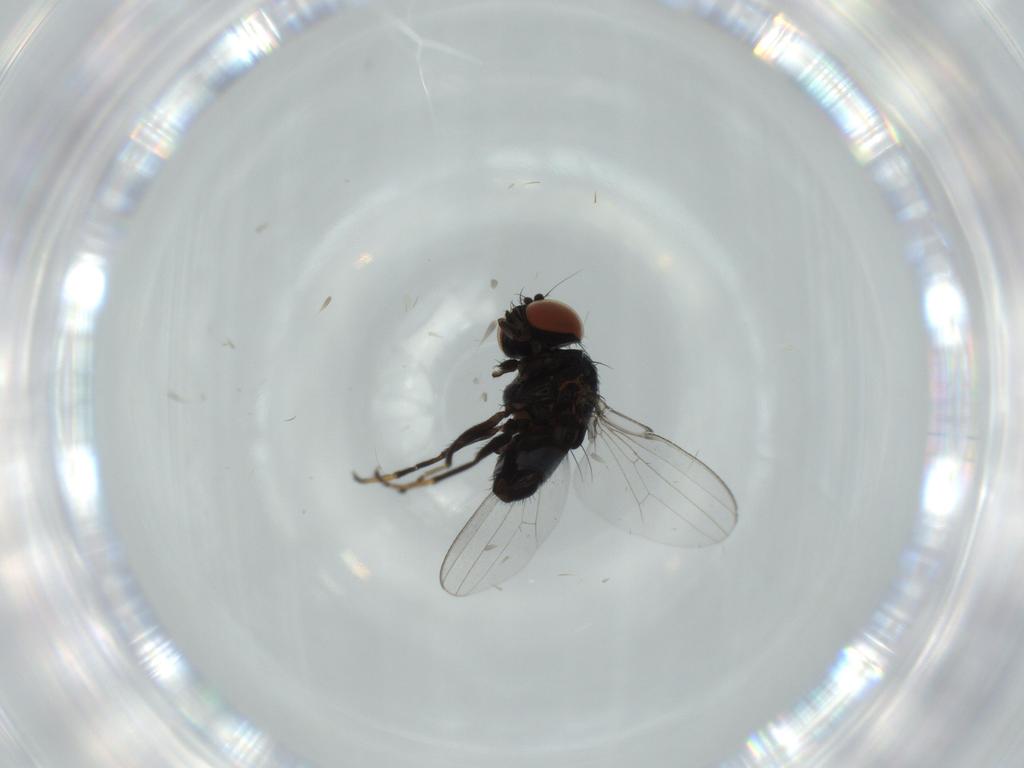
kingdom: Animalia
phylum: Arthropoda
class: Insecta
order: Diptera
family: Milichiidae
